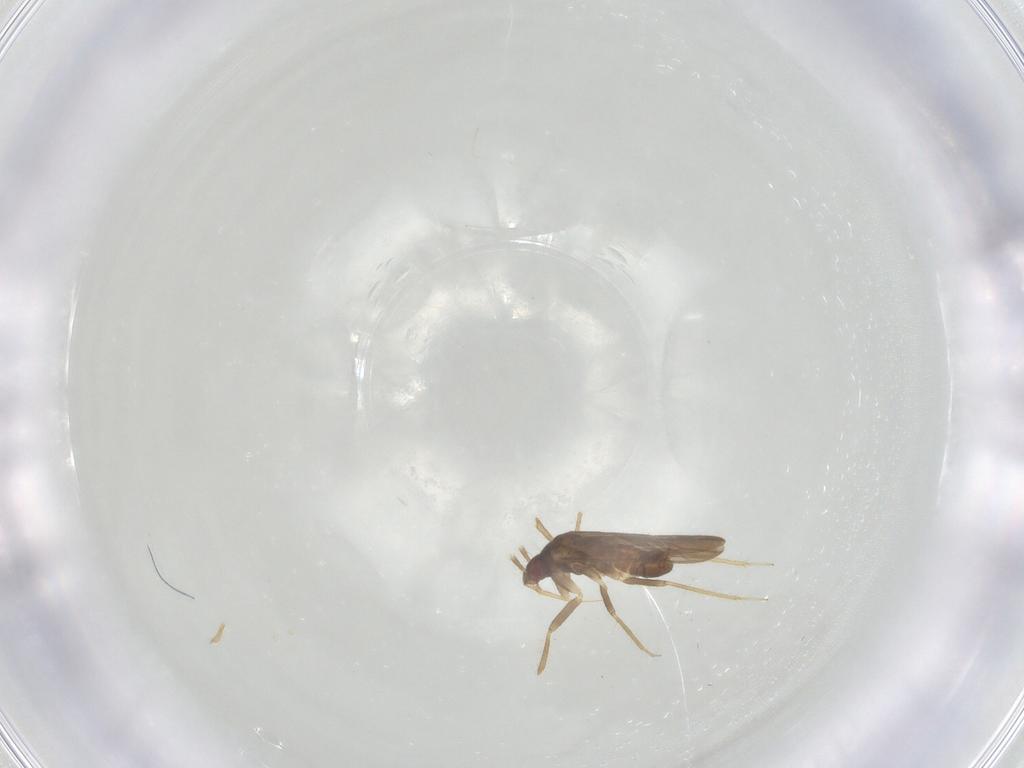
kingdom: Animalia
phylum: Arthropoda
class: Insecta
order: Hemiptera
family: Ceratocombidae
